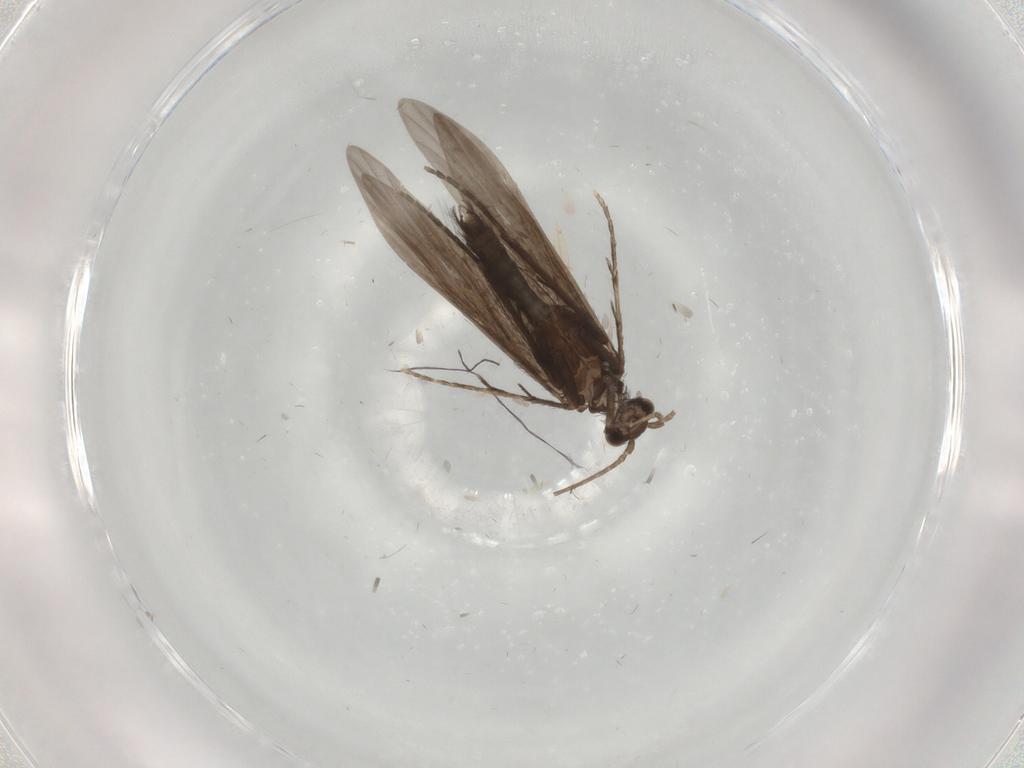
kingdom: Animalia
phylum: Arthropoda
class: Insecta
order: Trichoptera
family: Xiphocentronidae
